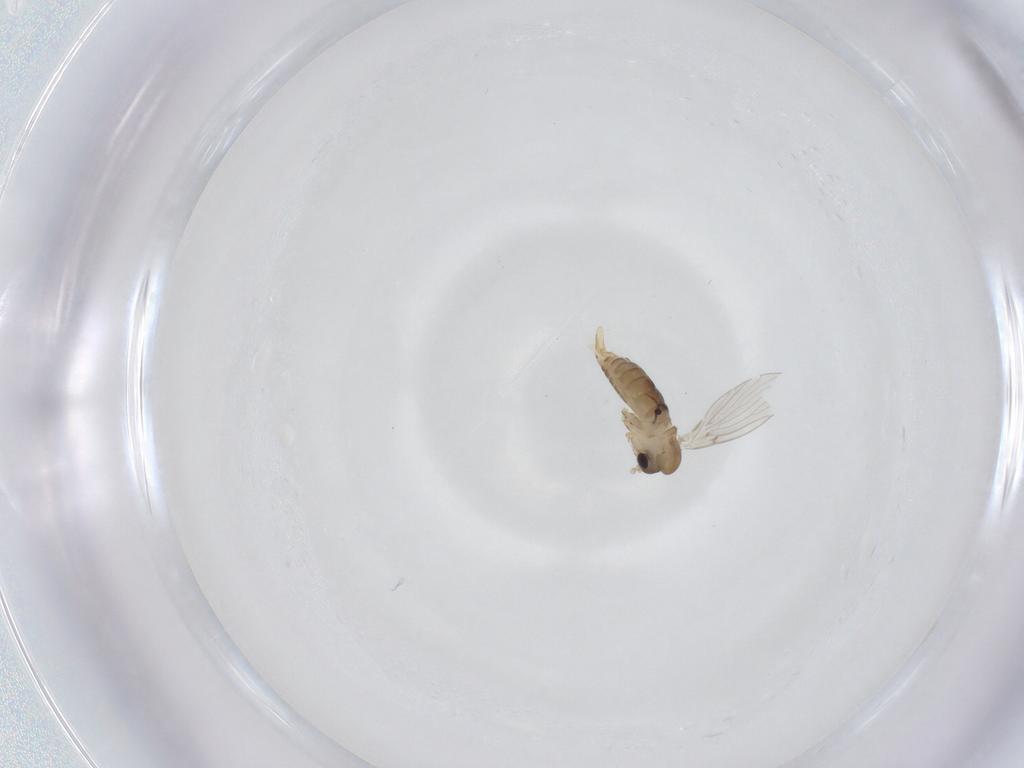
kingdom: Animalia
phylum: Arthropoda
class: Insecta
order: Diptera
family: Psychodidae
